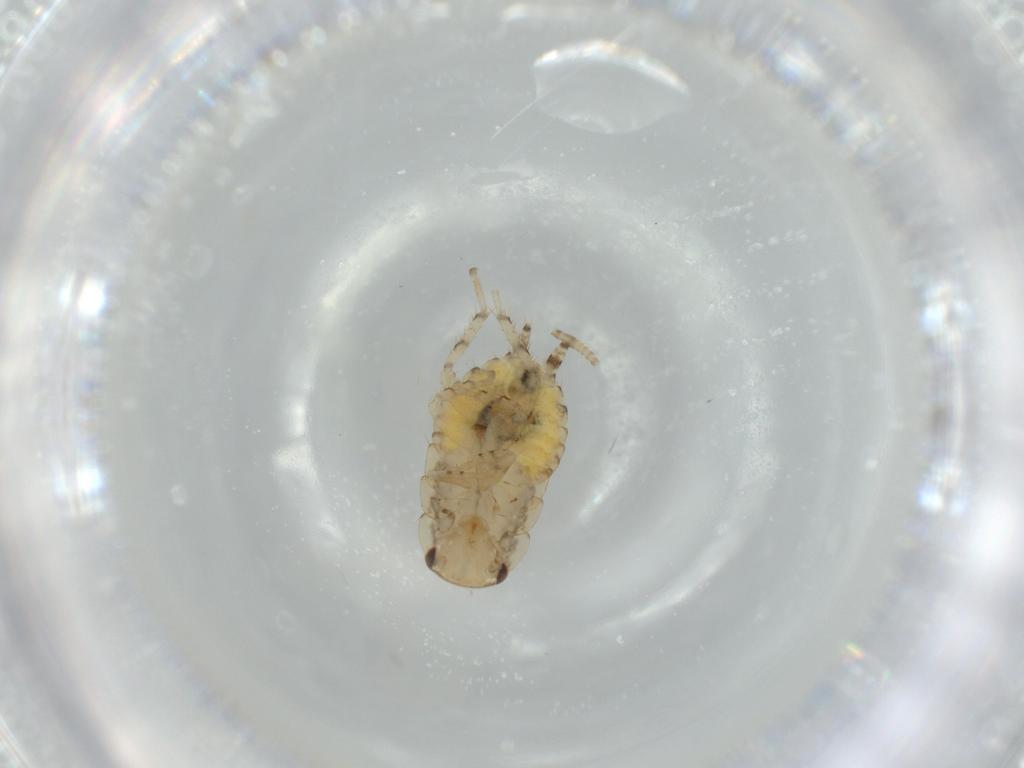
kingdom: Animalia
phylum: Arthropoda
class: Insecta
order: Blattodea
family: Ectobiidae
